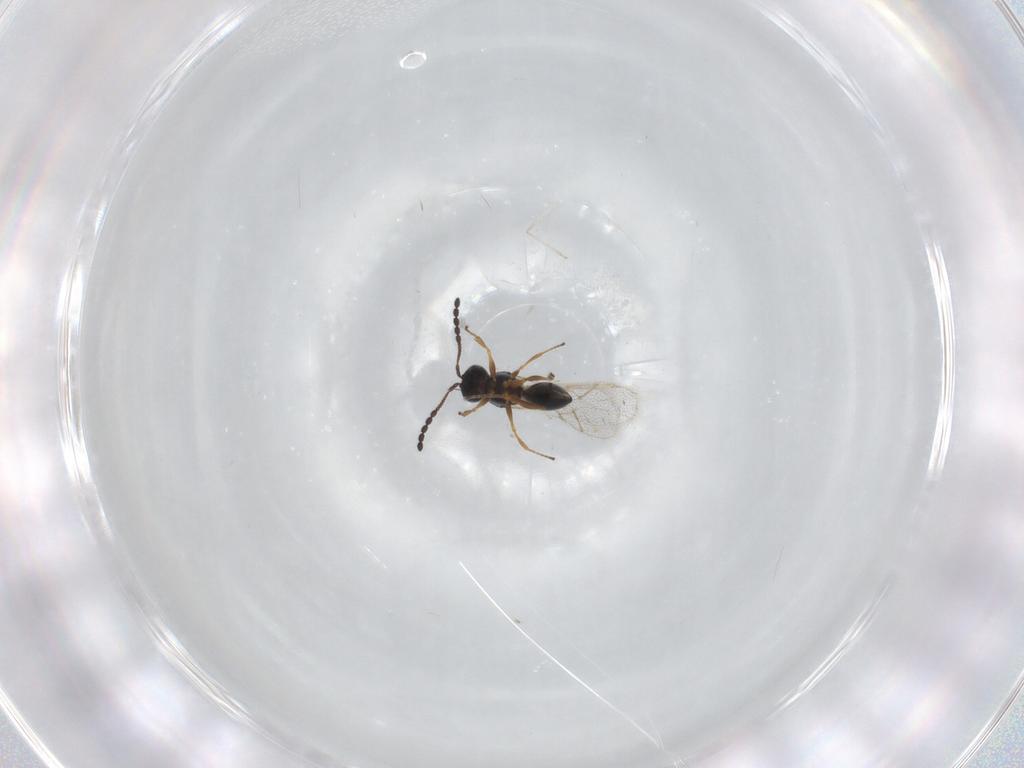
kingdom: Animalia
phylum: Arthropoda
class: Insecta
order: Hymenoptera
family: Figitidae
